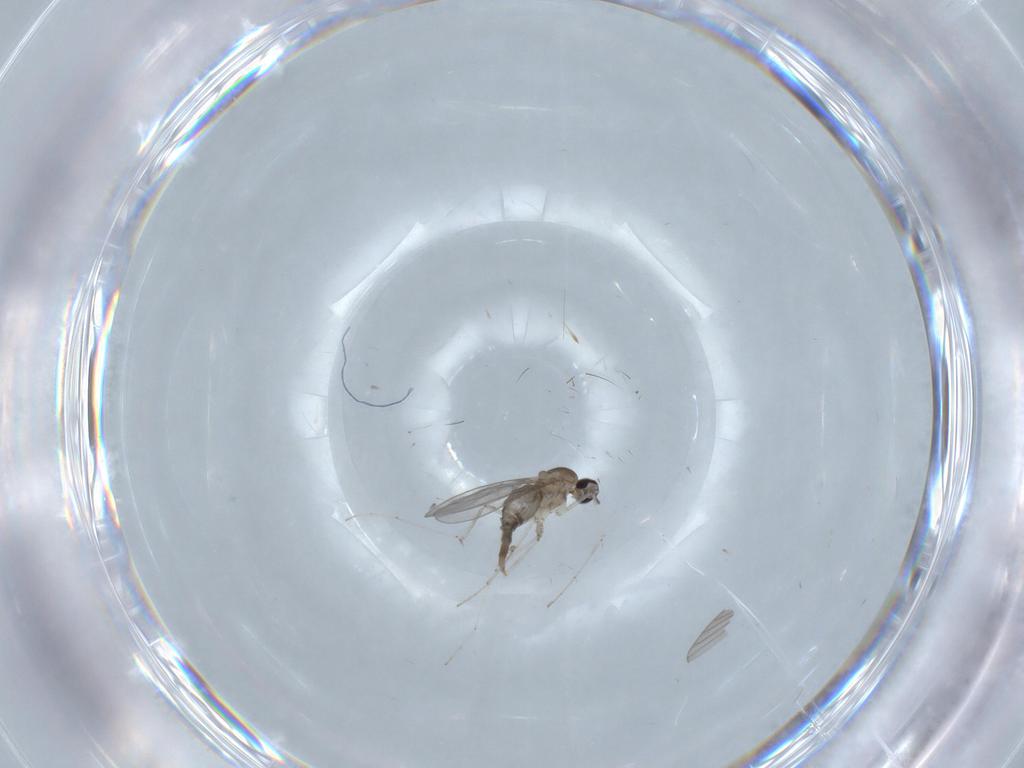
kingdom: Animalia
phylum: Arthropoda
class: Insecta
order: Diptera
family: Cecidomyiidae
